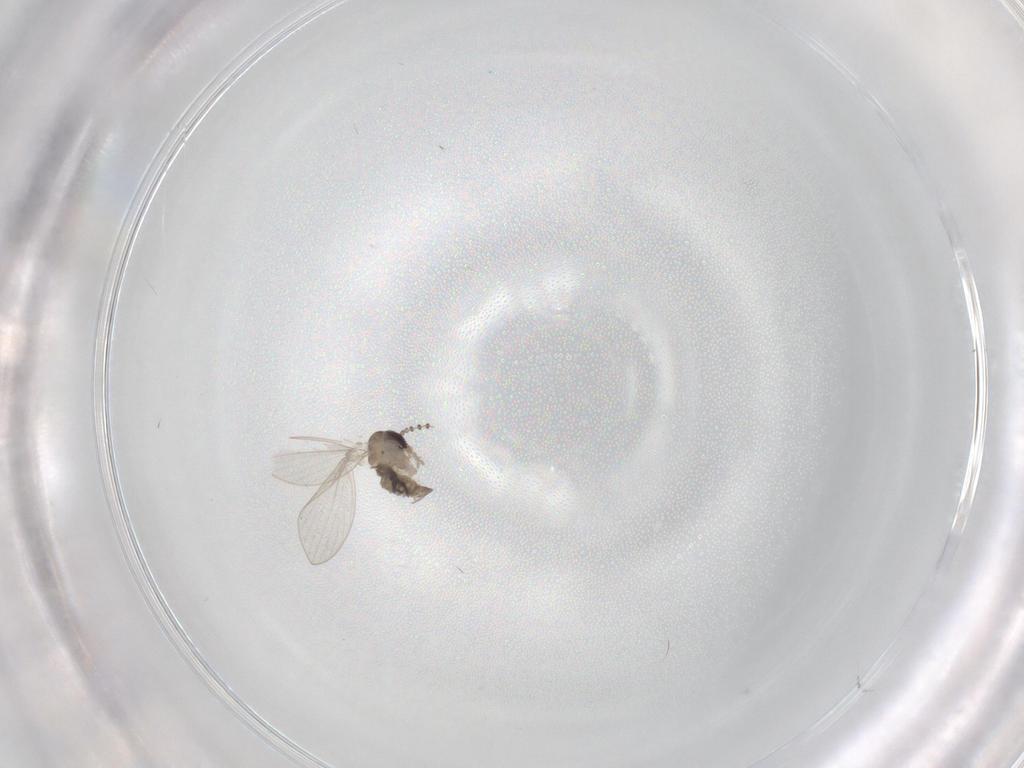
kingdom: Animalia
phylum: Arthropoda
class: Insecta
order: Diptera
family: Psychodidae
